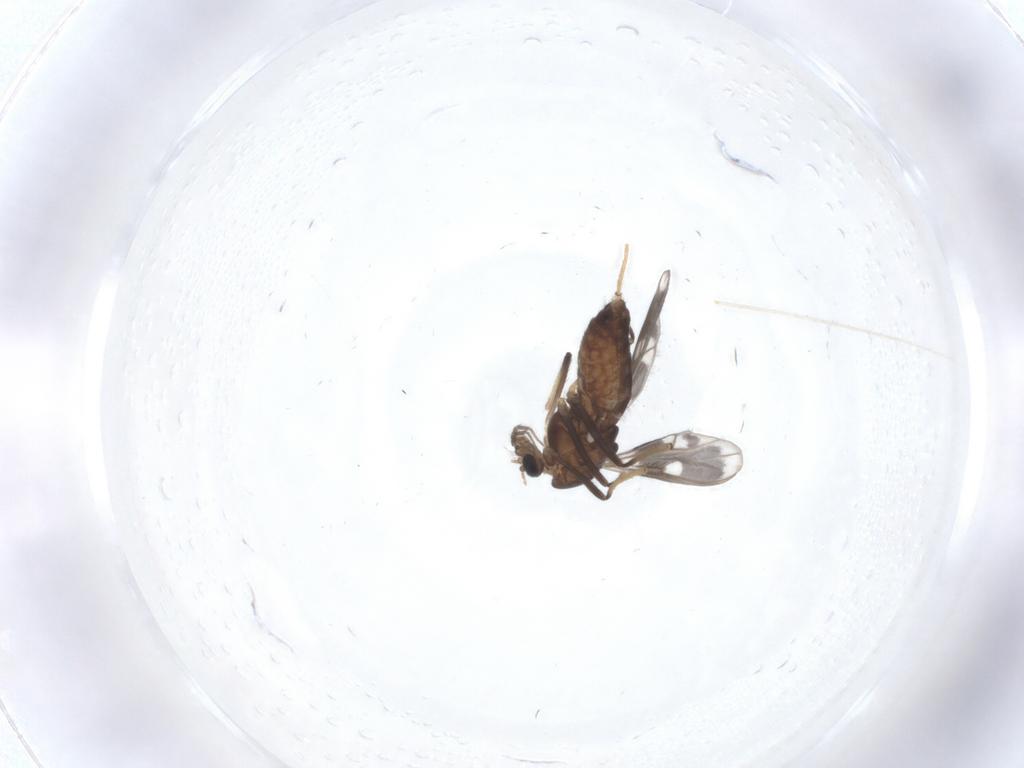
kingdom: Animalia
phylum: Arthropoda
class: Insecta
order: Diptera
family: Chironomidae
